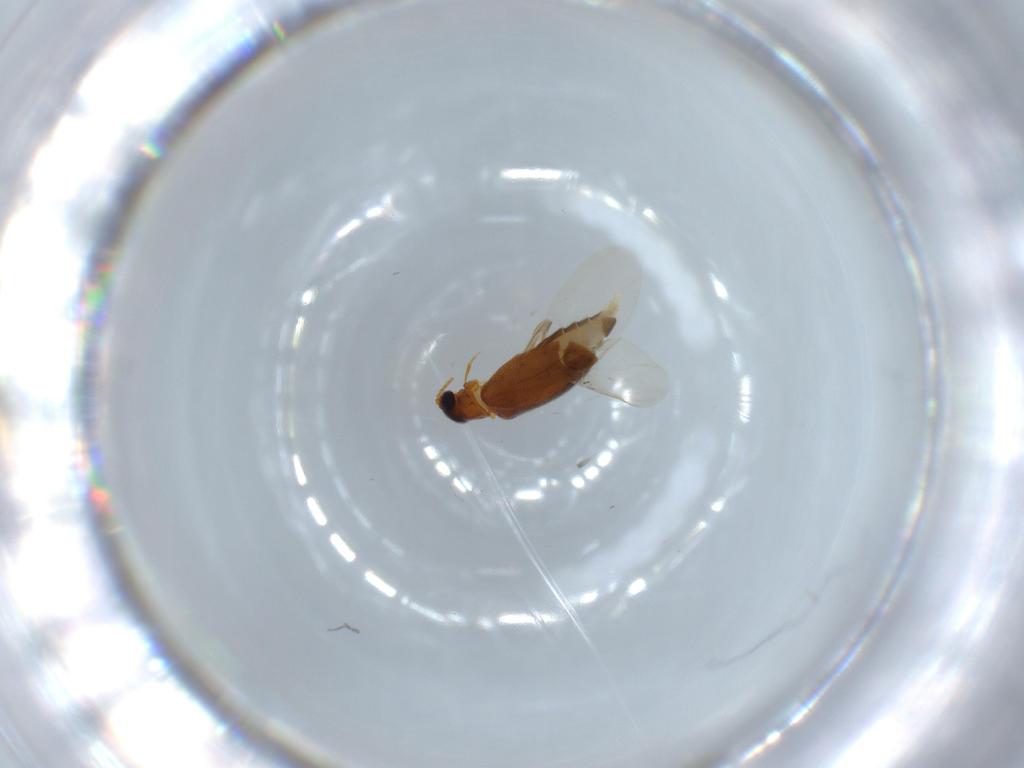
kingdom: Animalia
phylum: Arthropoda
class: Insecta
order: Coleoptera
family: Aderidae
